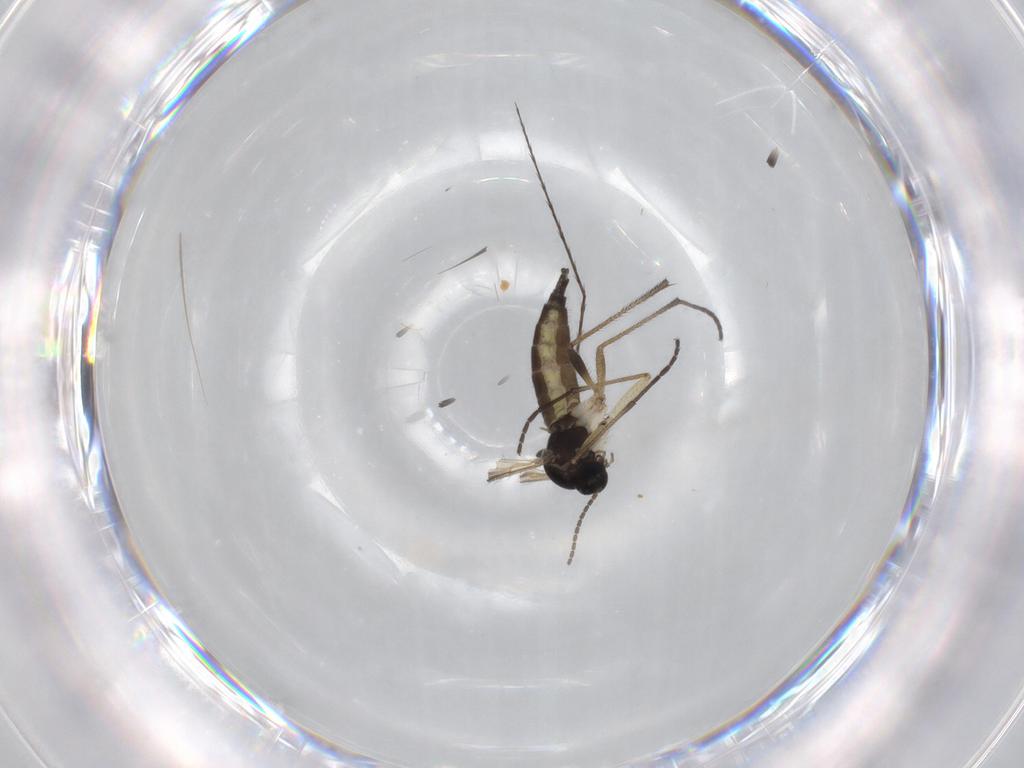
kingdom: Animalia
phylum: Arthropoda
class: Insecta
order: Diptera
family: Sciaridae
